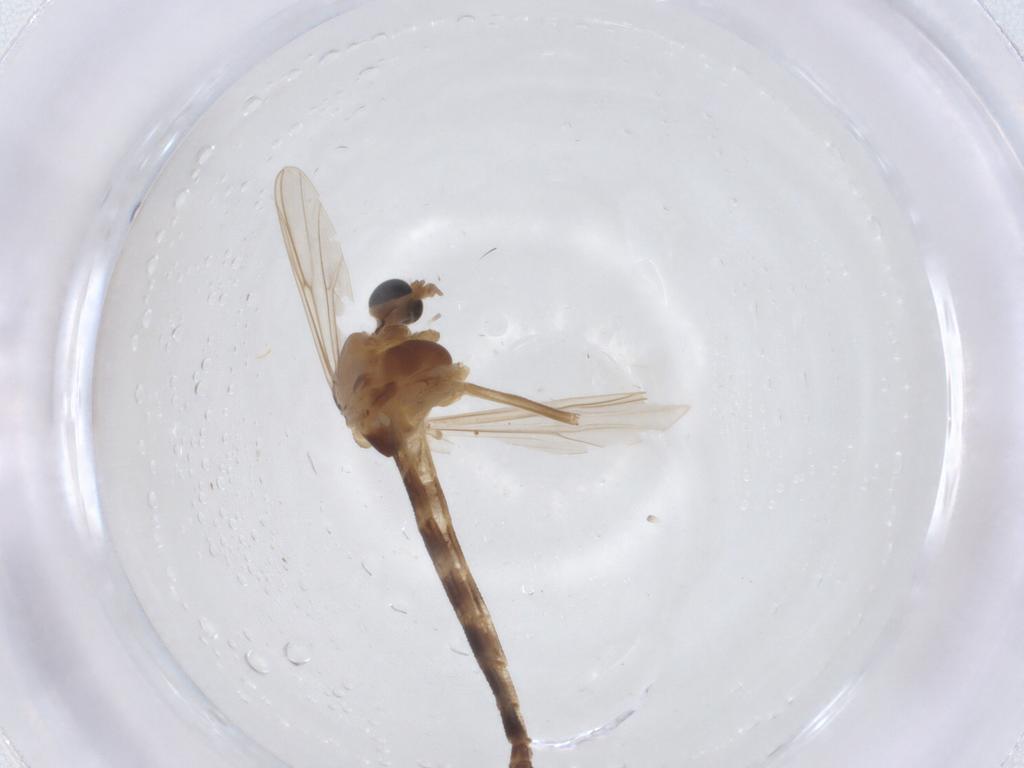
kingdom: Animalia
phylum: Arthropoda
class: Insecta
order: Diptera
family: Chironomidae
